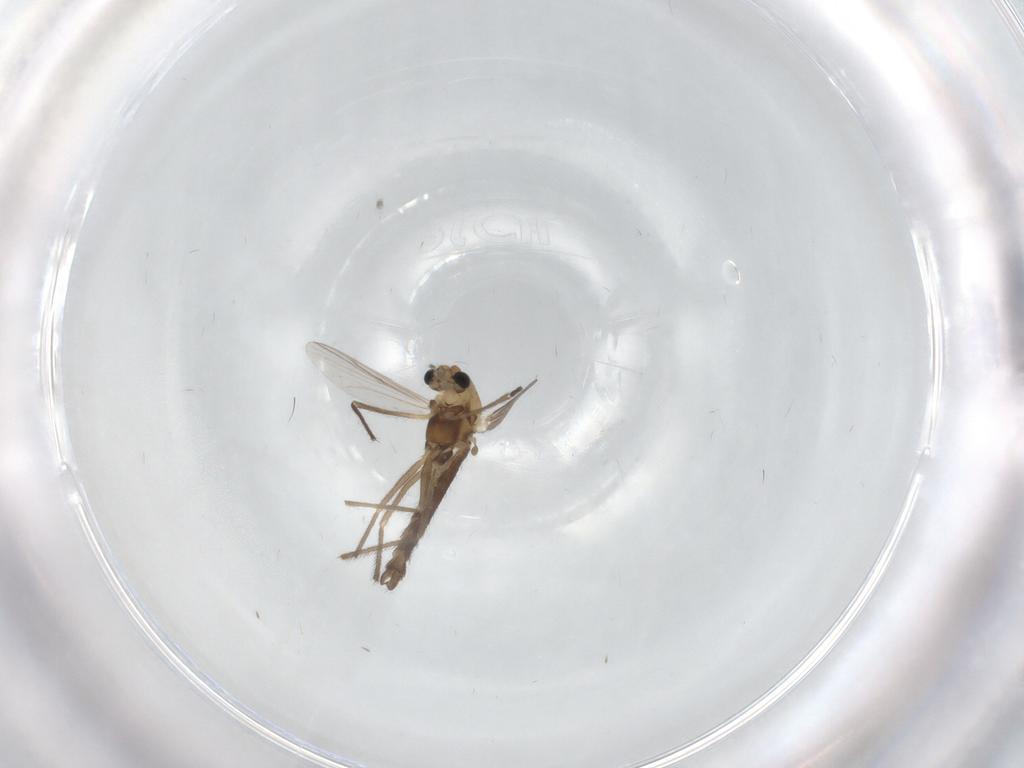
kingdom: Animalia
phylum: Arthropoda
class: Insecta
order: Diptera
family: Chironomidae
